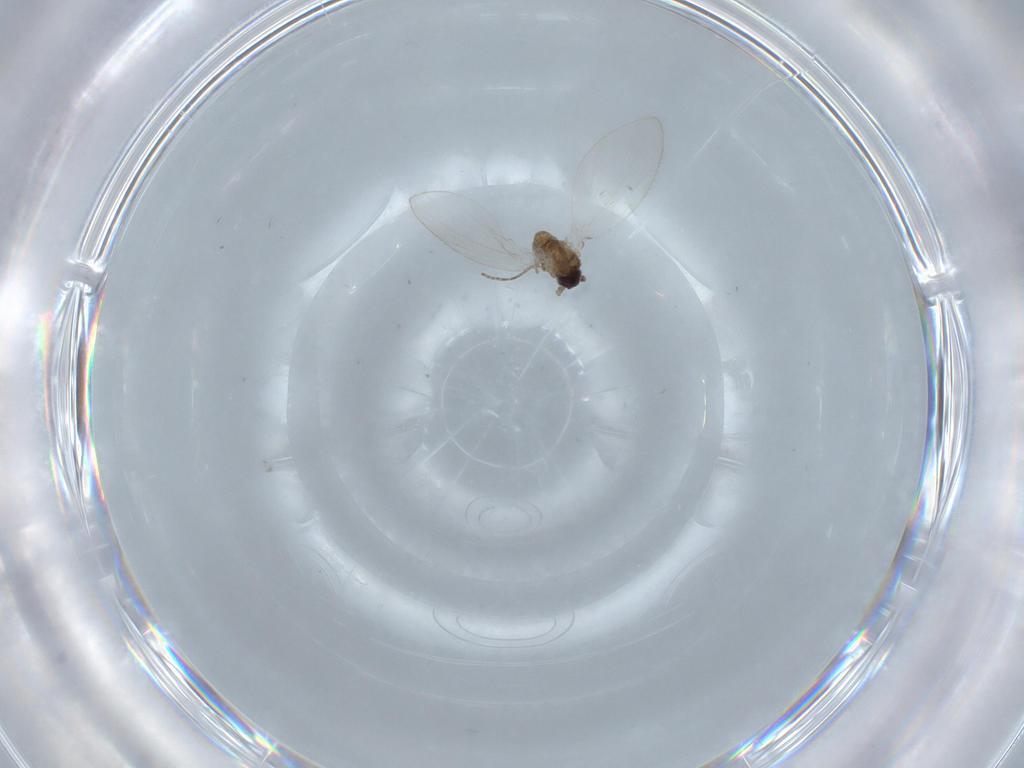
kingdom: Animalia
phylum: Arthropoda
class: Insecta
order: Diptera
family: Psychodidae
